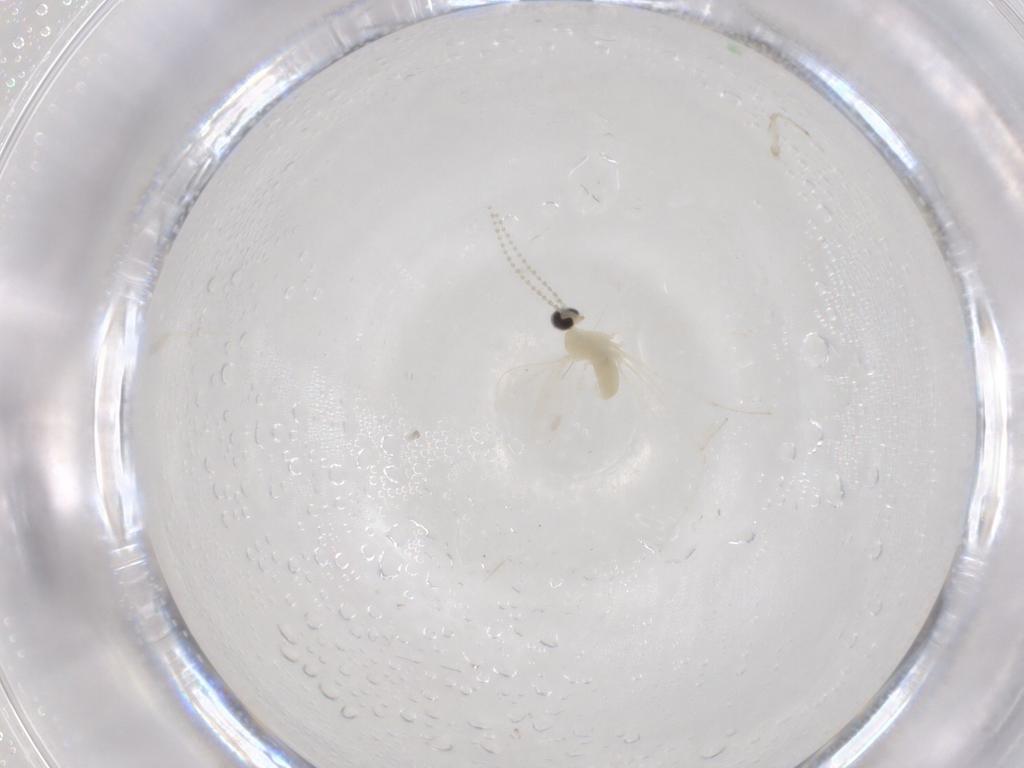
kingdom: Animalia
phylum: Arthropoda
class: Insecta
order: Diptera
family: Cecidomyiidae
